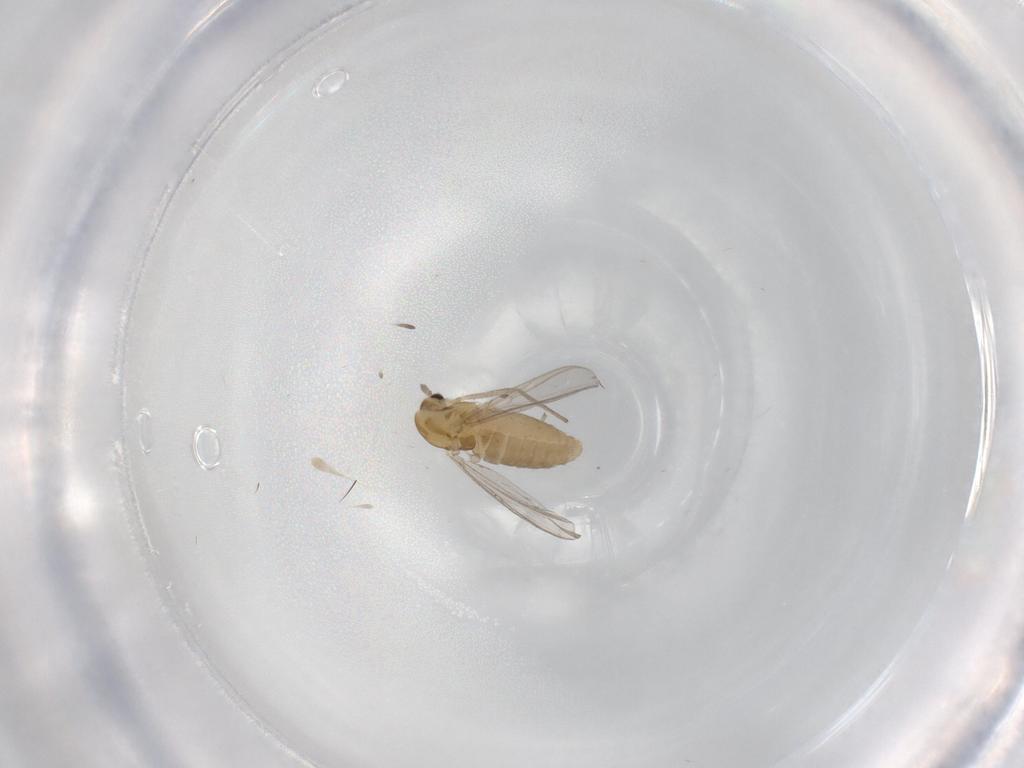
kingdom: Animalia
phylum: Arthropoda
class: Insecta
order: Diptera
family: Chironomidae
